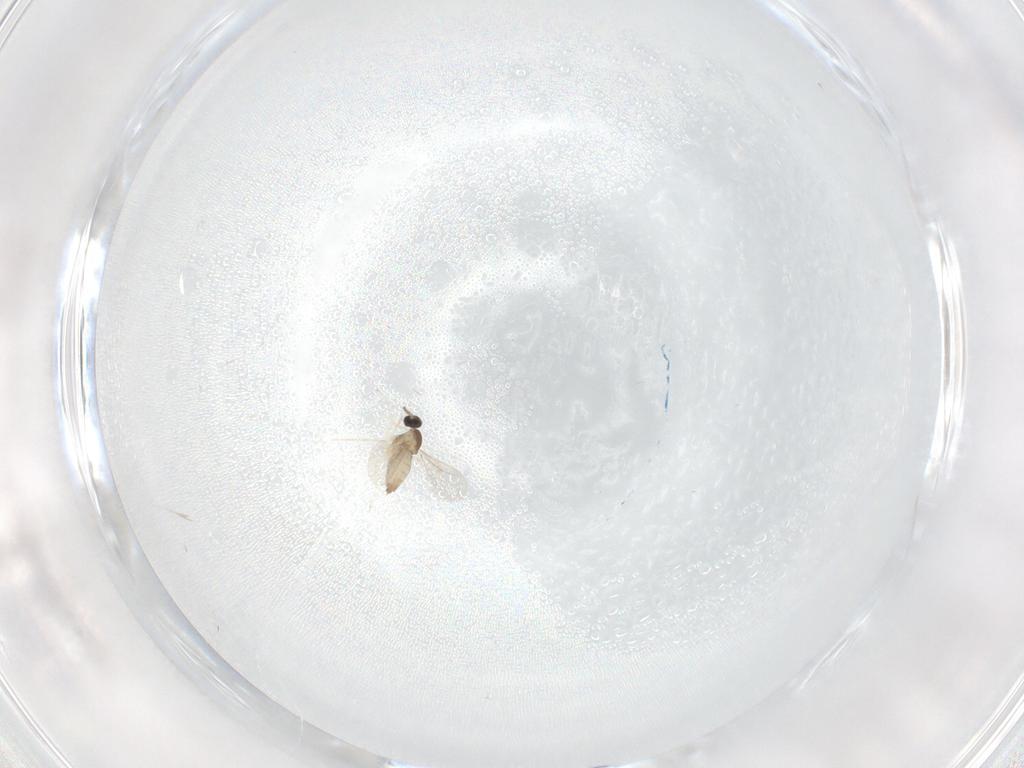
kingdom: Animalia
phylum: Arthropoda
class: Insecta
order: Diptera
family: Cecidomyiidae
